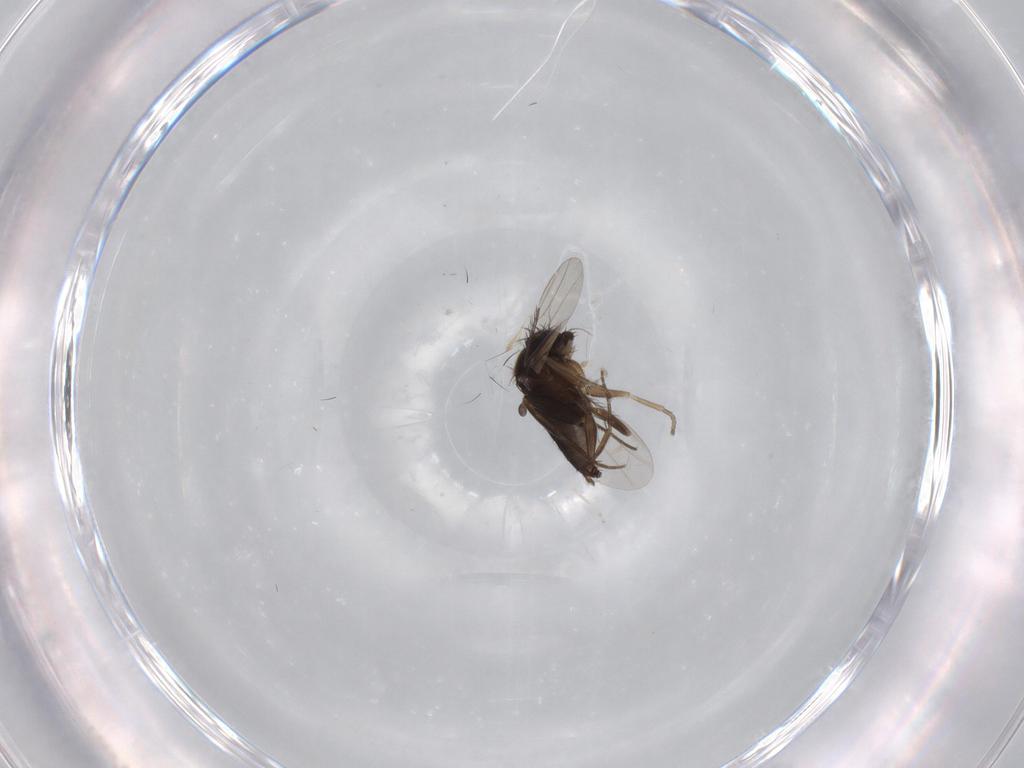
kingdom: Animalia
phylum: Arthropoda
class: Insecta
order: Diptera
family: Phoridae
